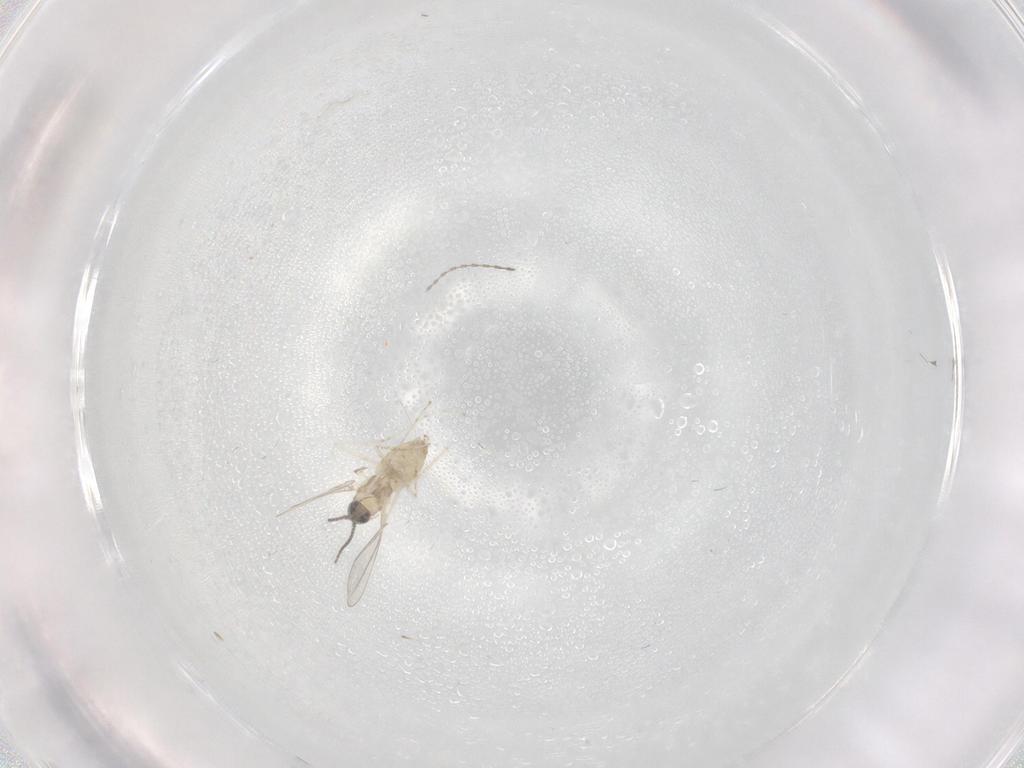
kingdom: Animalia
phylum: Arthropoda
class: Insecta
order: Diptera
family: Cecidomyiidae
